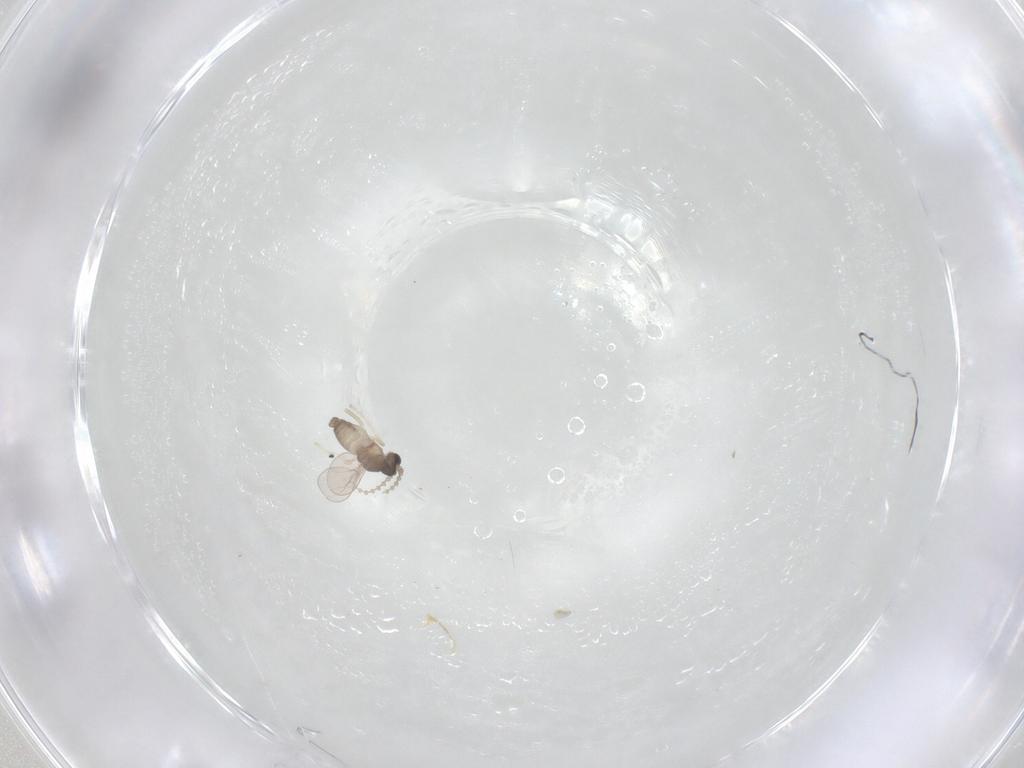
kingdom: Animalia
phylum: Arthropoda
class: Insecta
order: Diptera
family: Cecidomyiidae
